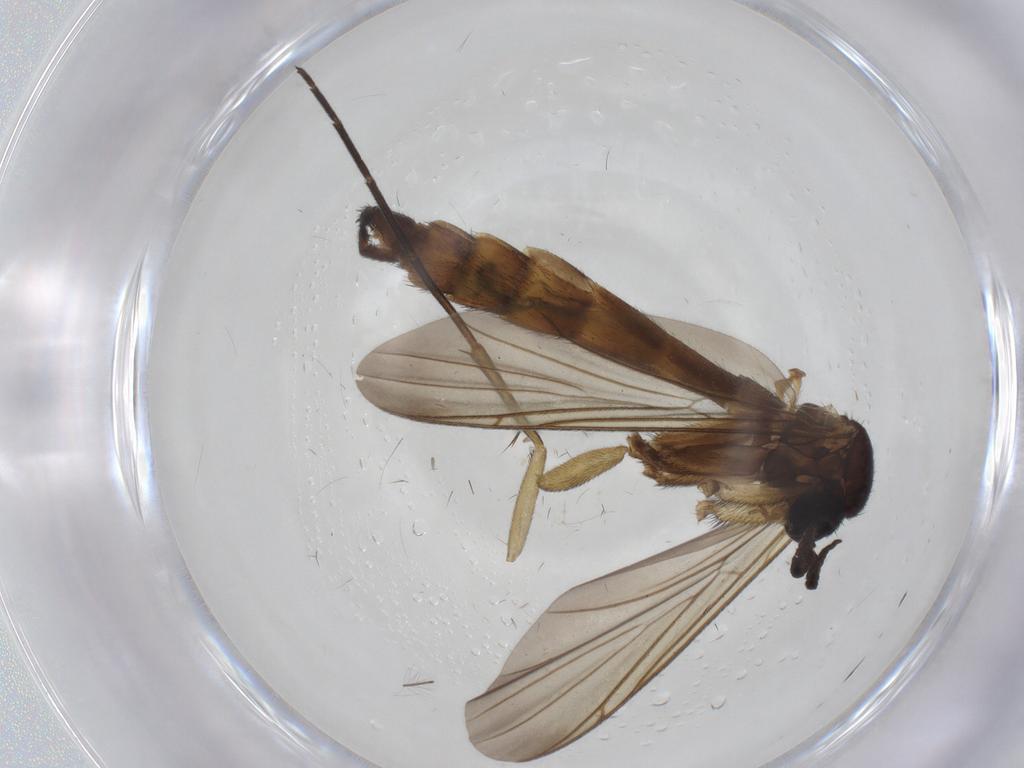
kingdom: Animalia
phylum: Arthropoda
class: Insecta
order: Diptera
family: Keroplatidae
